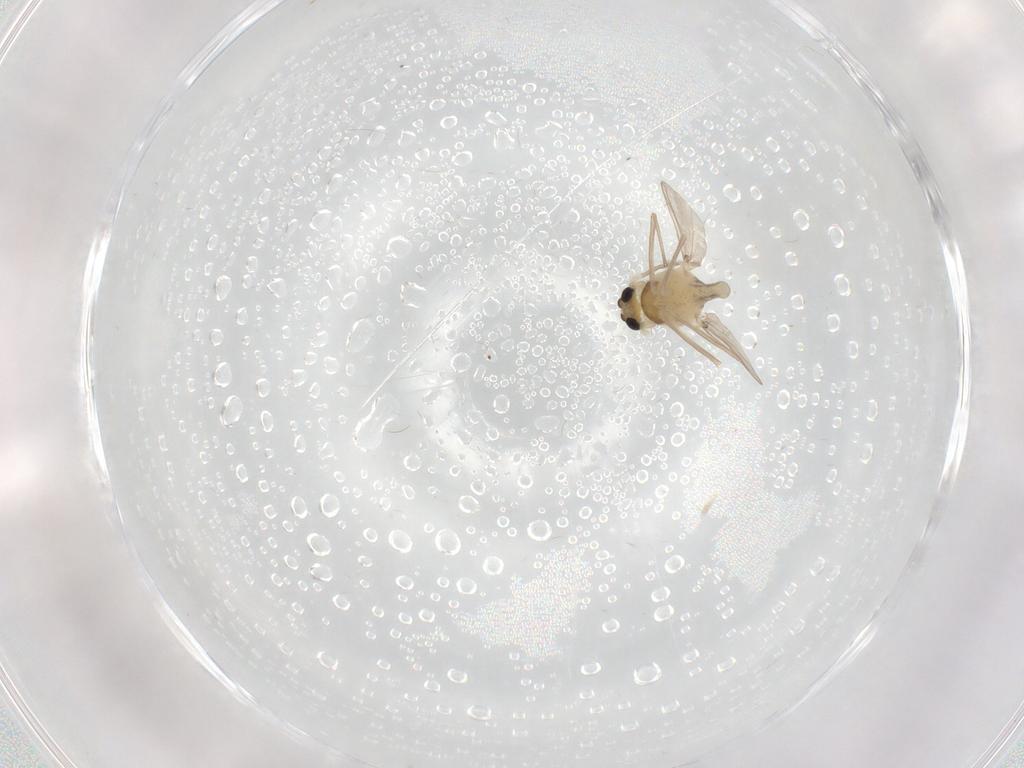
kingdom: Animalia
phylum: Arthropoda
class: Insecta
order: Diptera
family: Chironomidae
